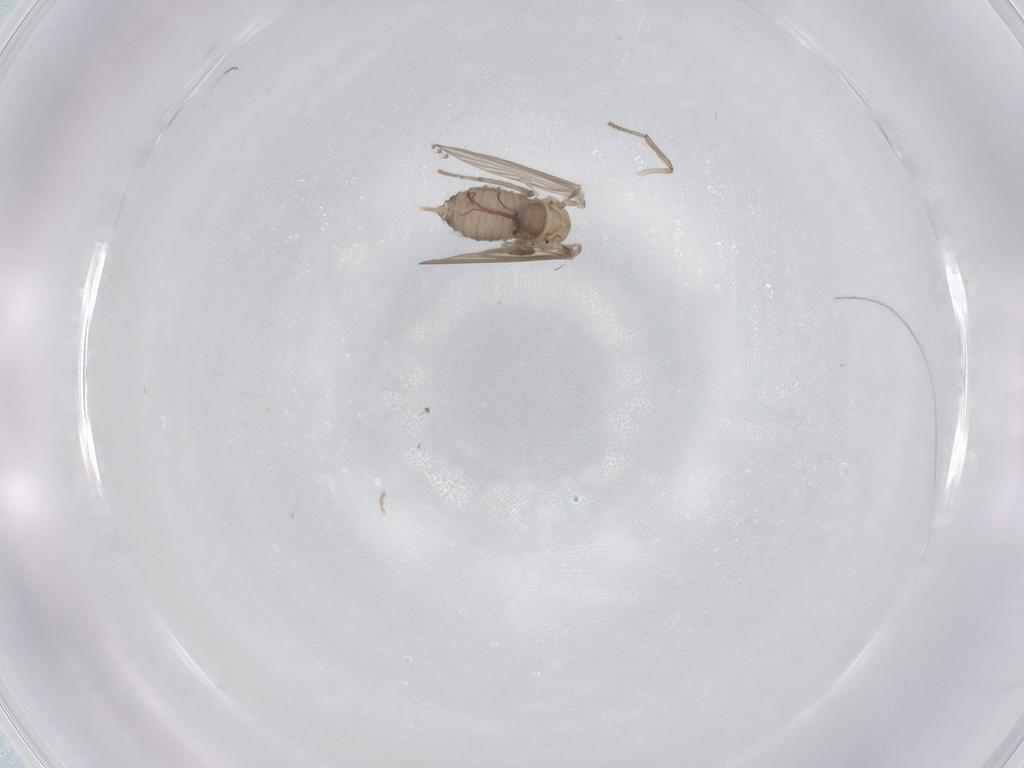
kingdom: Animalia
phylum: Arthropoda
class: Insecta
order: Diptera
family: Psychodidae
